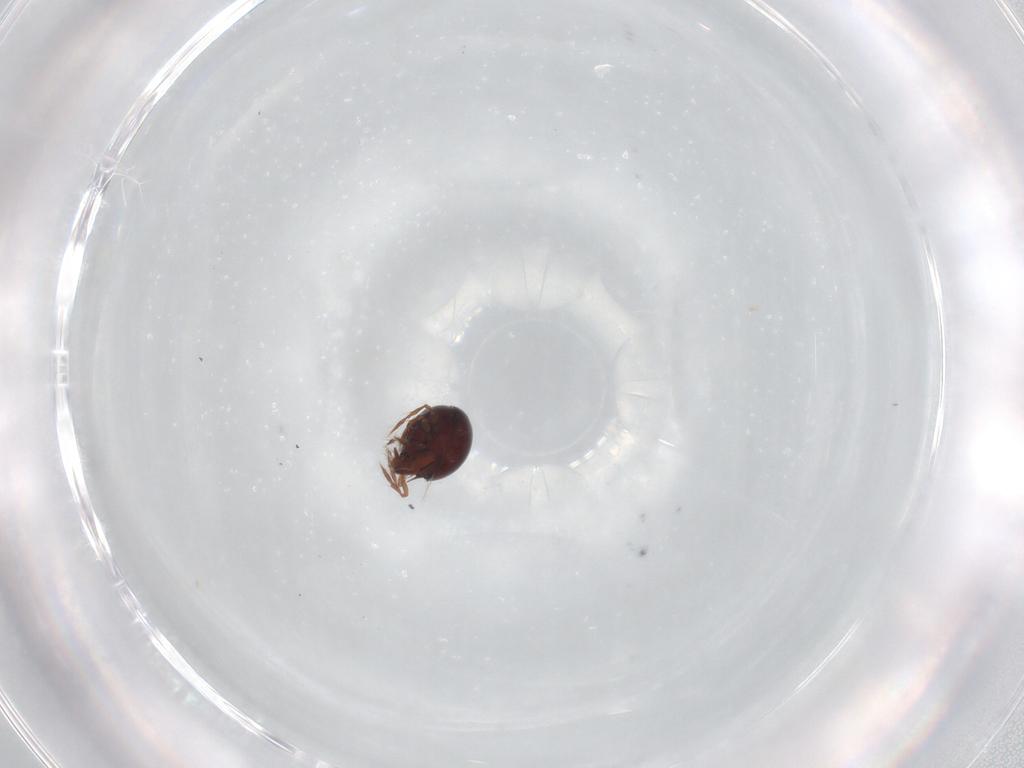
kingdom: Animalia
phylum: Arthropoda
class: Arachnida
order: Sarcoptiformes
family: Ceratoppiidae
